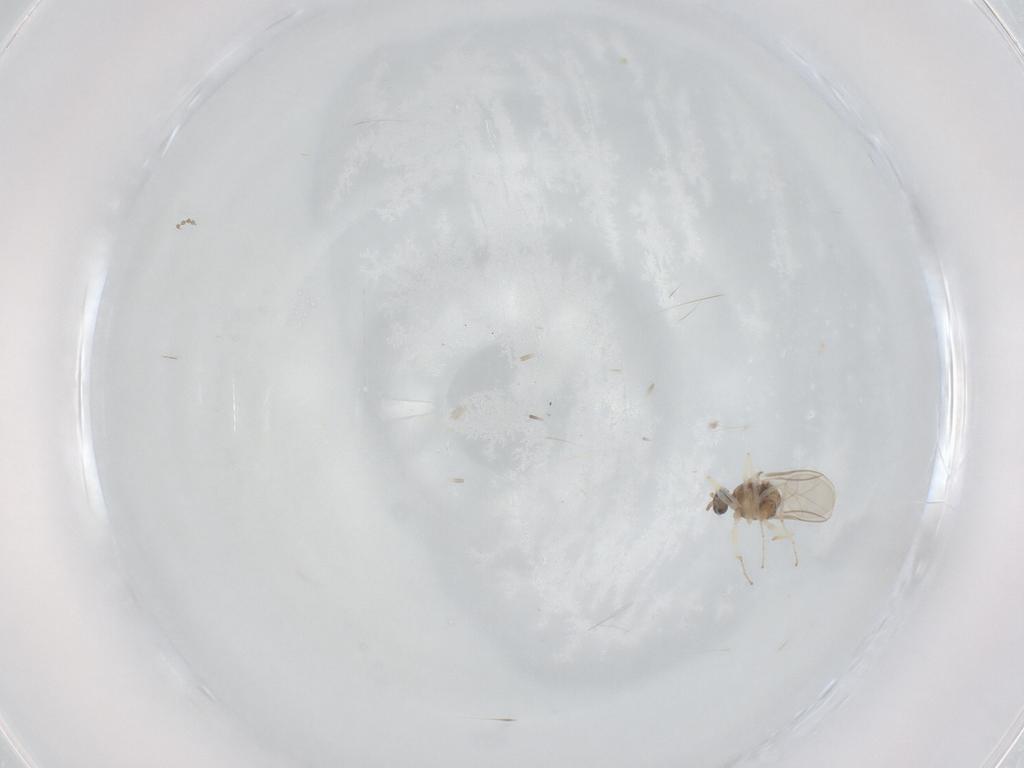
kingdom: Animalia
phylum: Arthropoda
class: Insecta
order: Diptera
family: Cecidomyiidae
